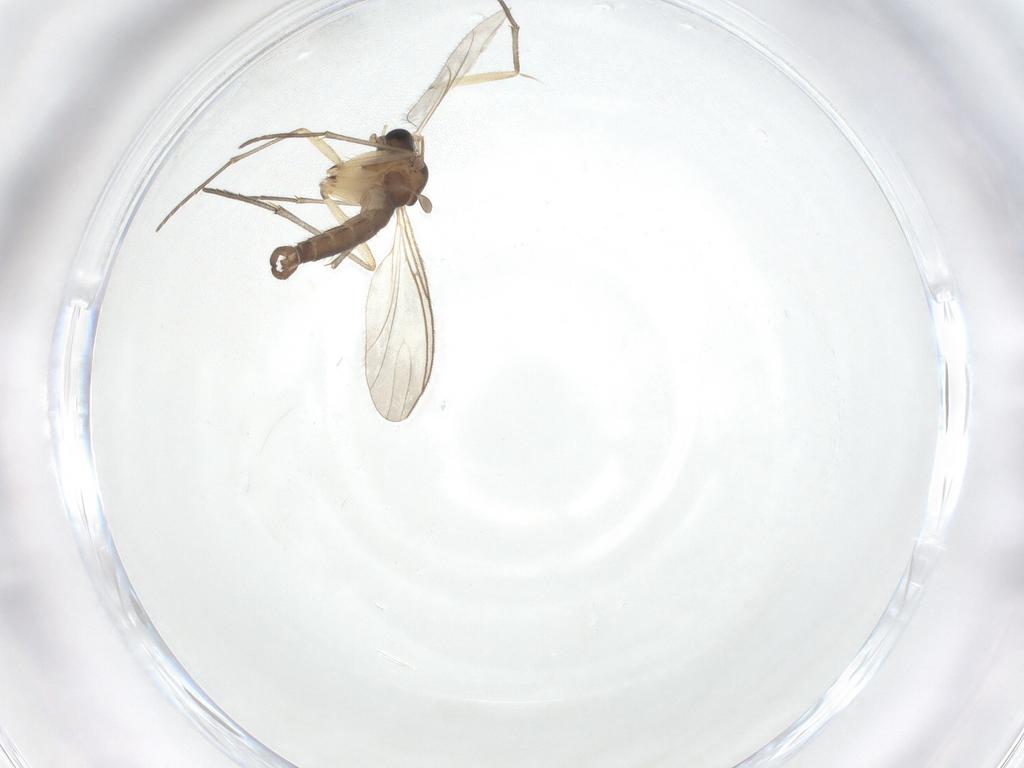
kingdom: Animalia
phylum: Arthropoda
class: Insecta
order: Diptera
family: Sciaridae
